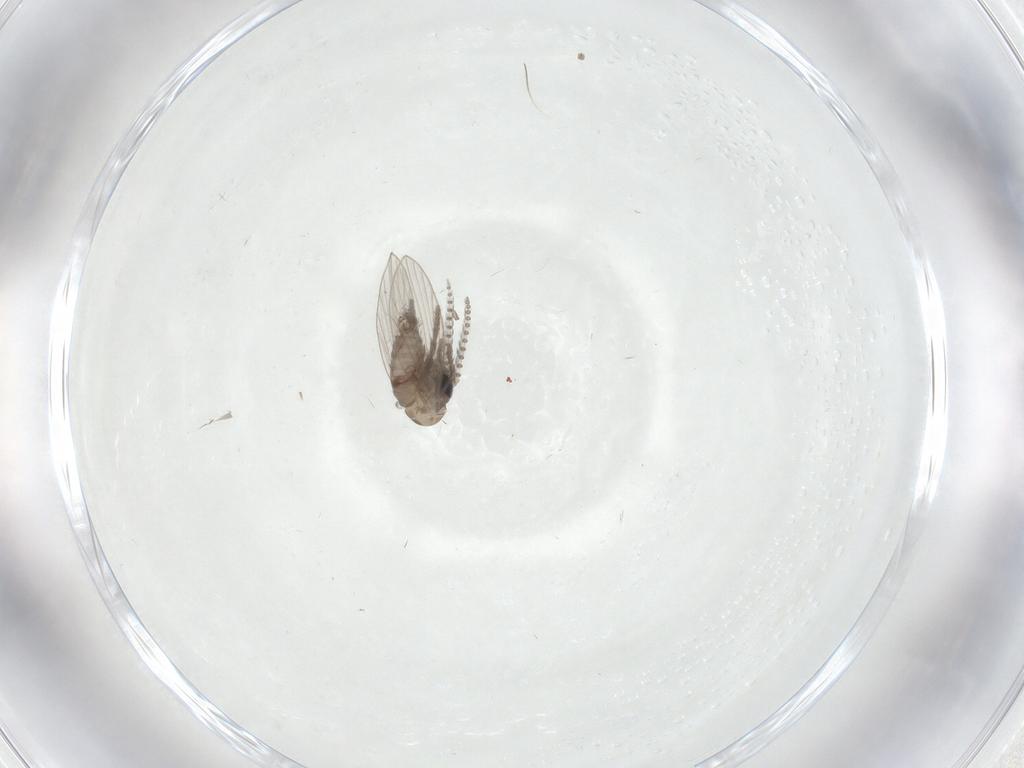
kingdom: Animalia
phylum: Arthropoda
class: Insecta
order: Diptera
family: Psychodidae
